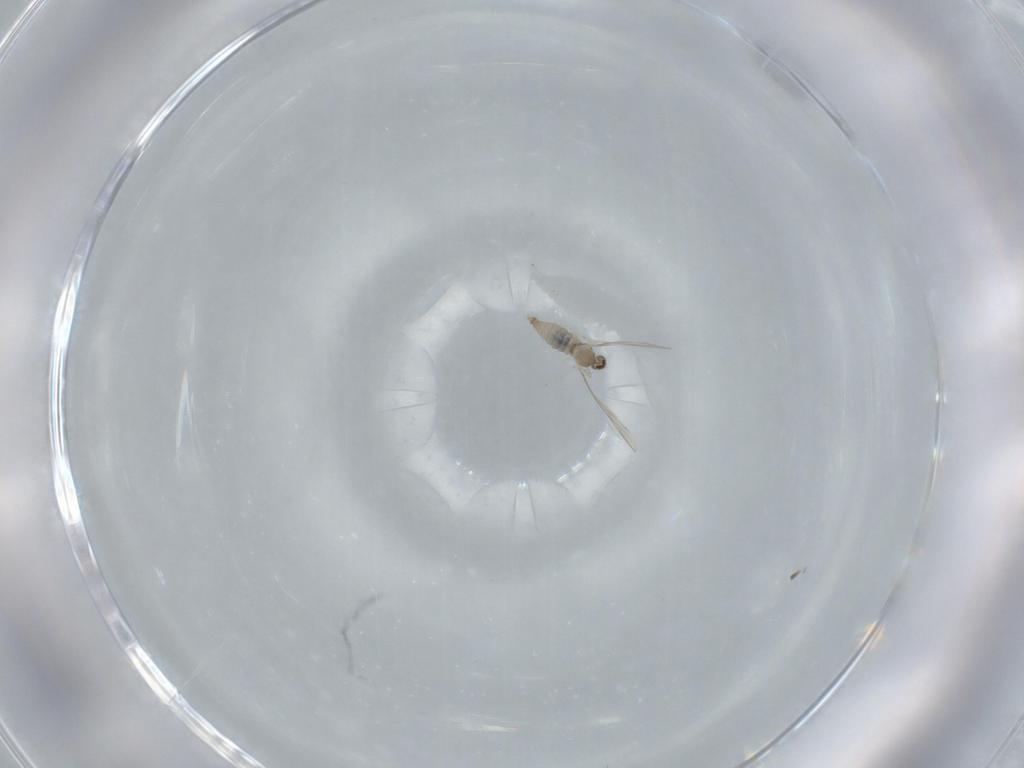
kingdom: Animalia
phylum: Arthropoda
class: Insecta
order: Diptera
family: Cecidomyiidae
